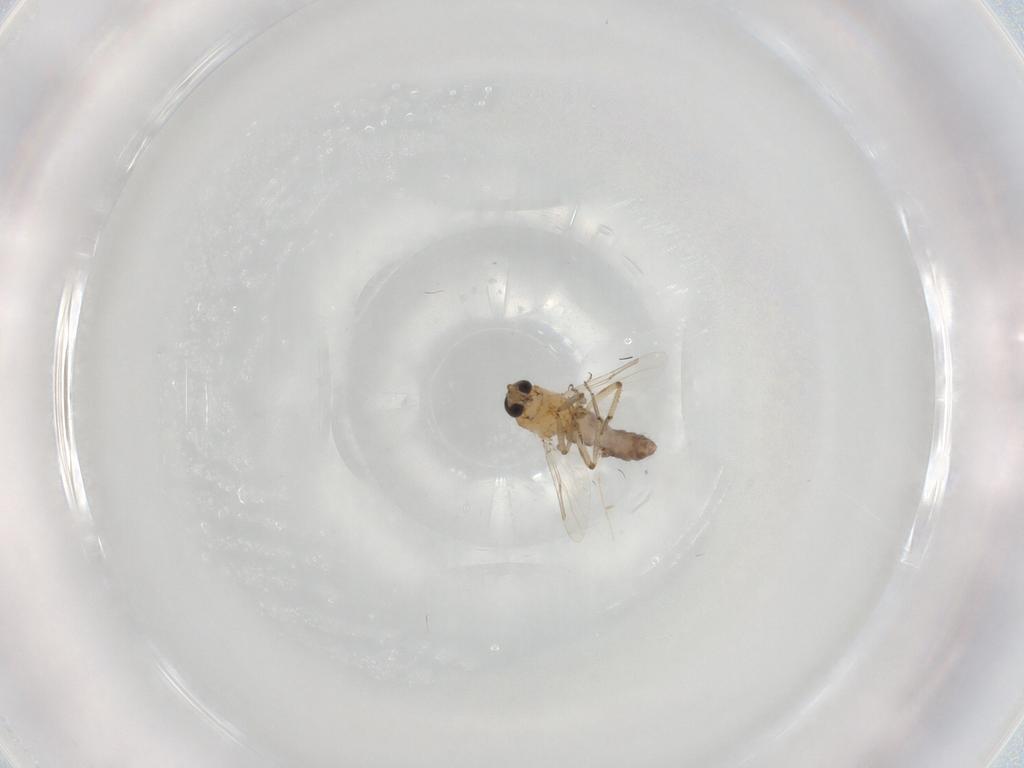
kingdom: Animalia
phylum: Arthropoda
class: Insecta
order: Diptera
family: Ceratopogonidae
